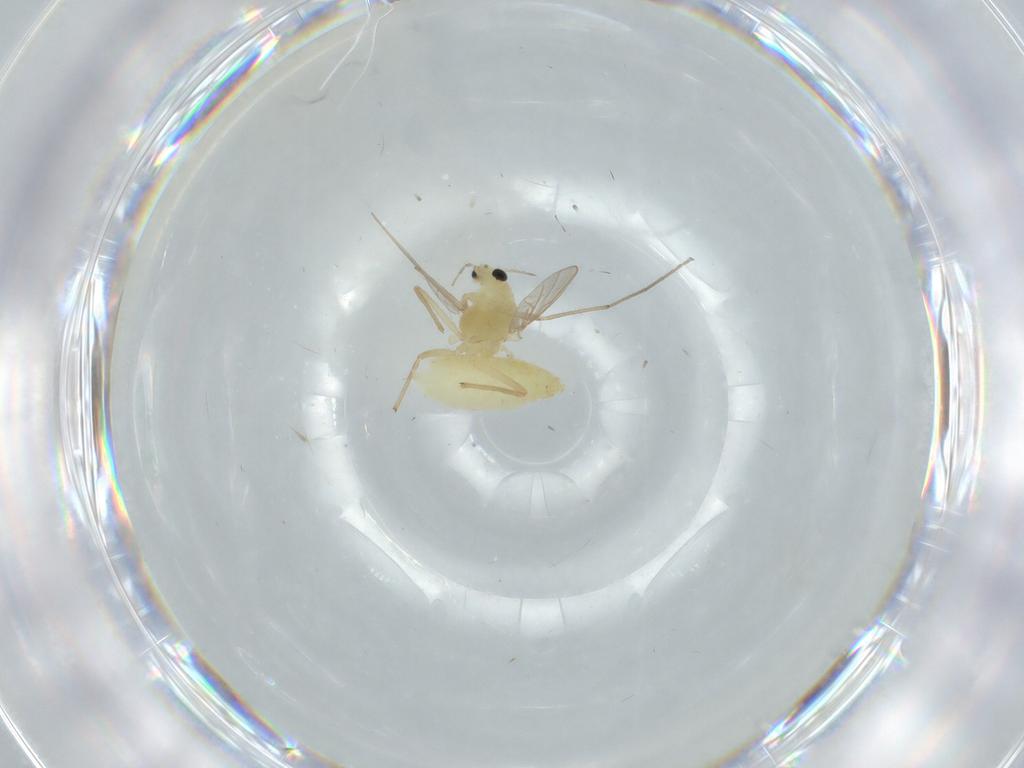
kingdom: Animalia
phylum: Arthropoda
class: Insecta
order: Diptera
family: Chironomidae
